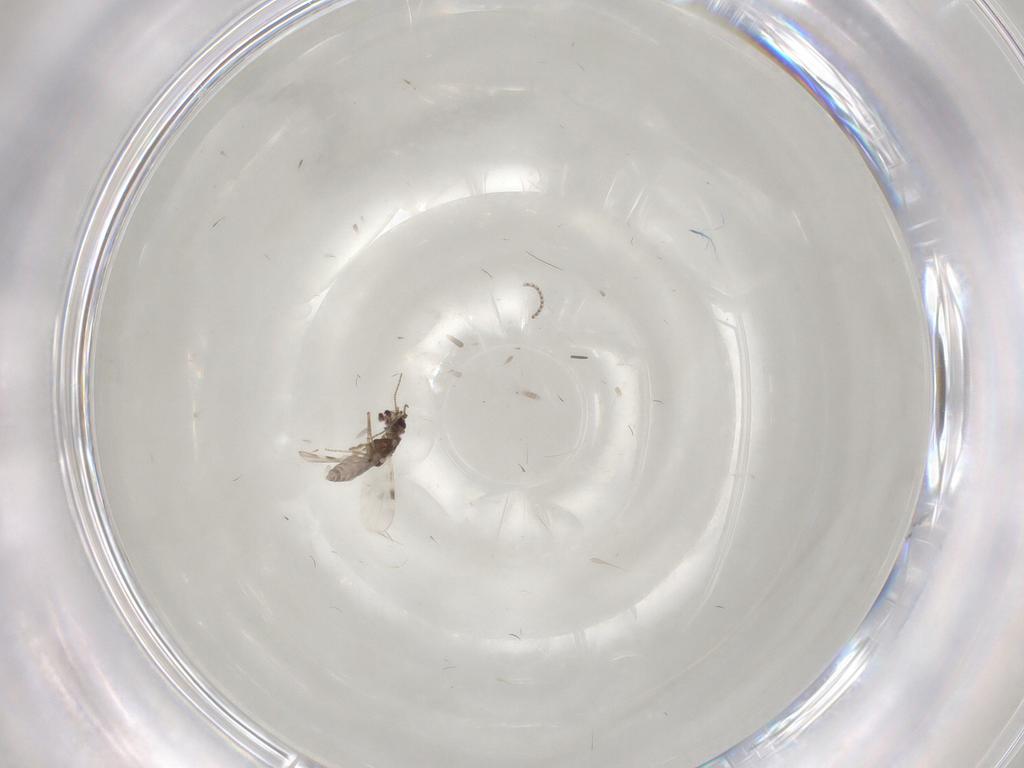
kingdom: Animalia
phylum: Arthropoda
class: Insecta
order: Diptera
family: Cecidomyiidae
